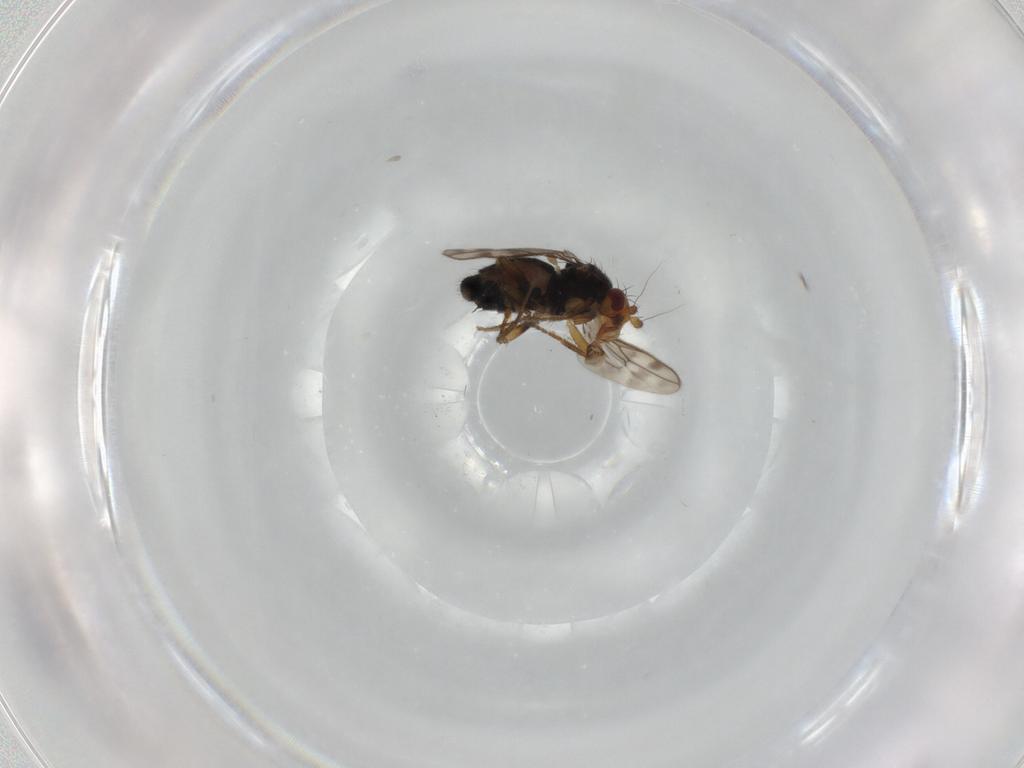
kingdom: Animalia
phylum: Arthropoda
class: Insecta
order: Diptera
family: Sphaeroceridae
